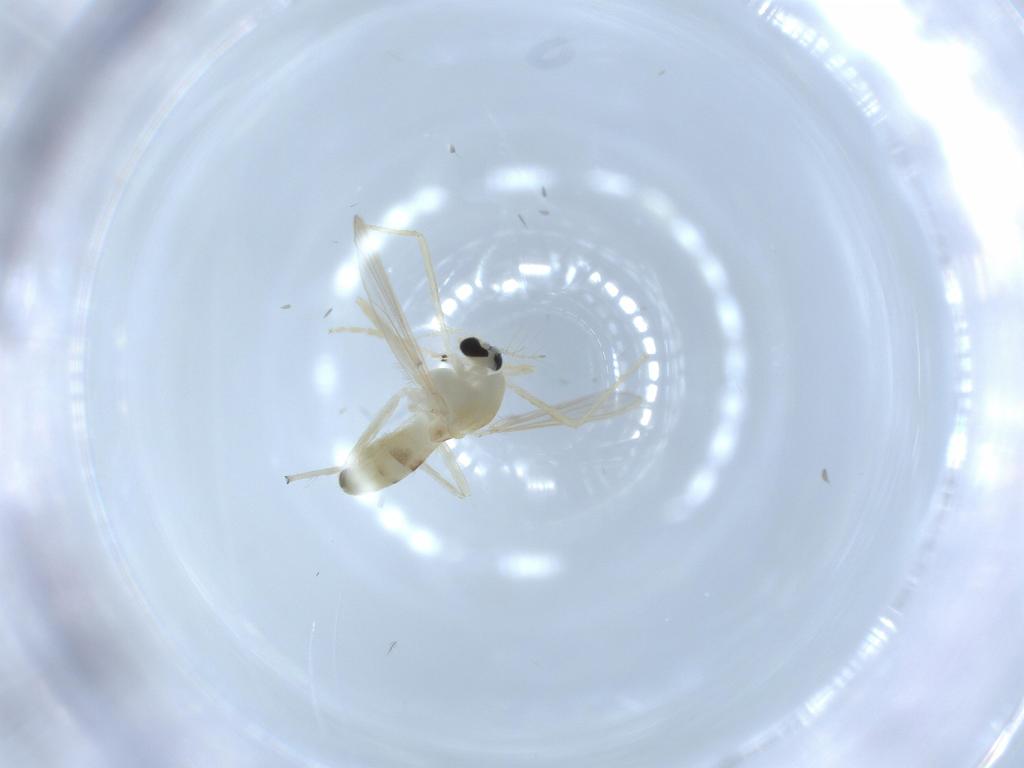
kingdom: Animalia
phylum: Arthropoda
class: Insecta
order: Diptera
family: Chironomidae
